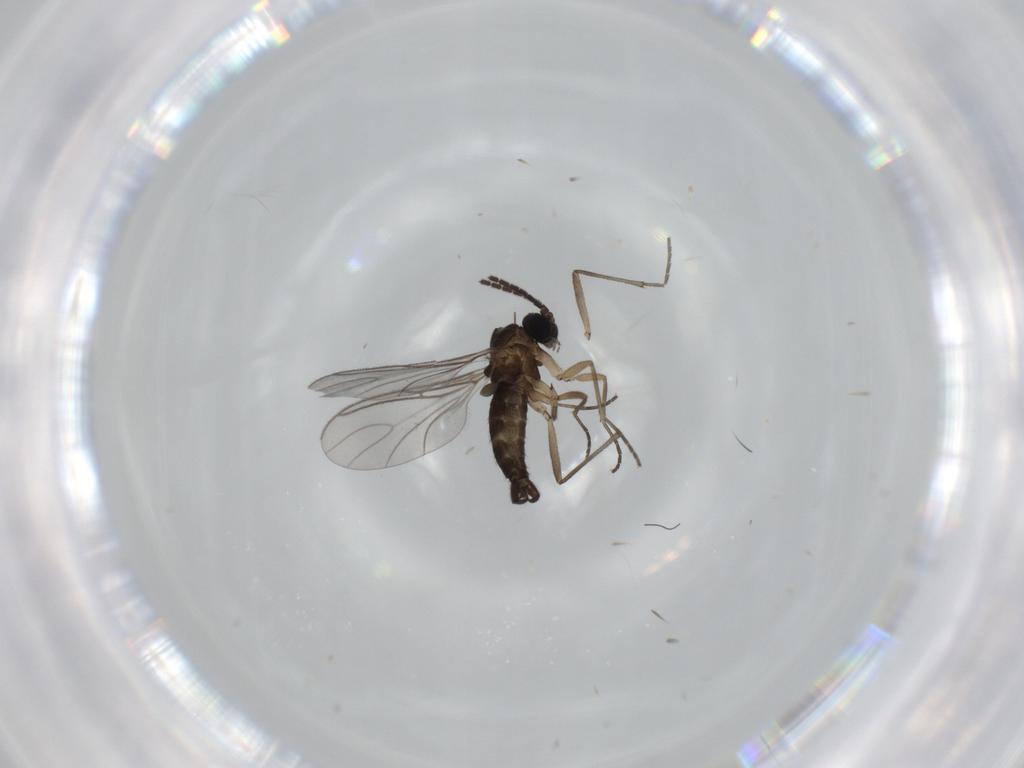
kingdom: Animalia
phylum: Arthropoda
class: Insecta
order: Diptera
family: Sciaridae
